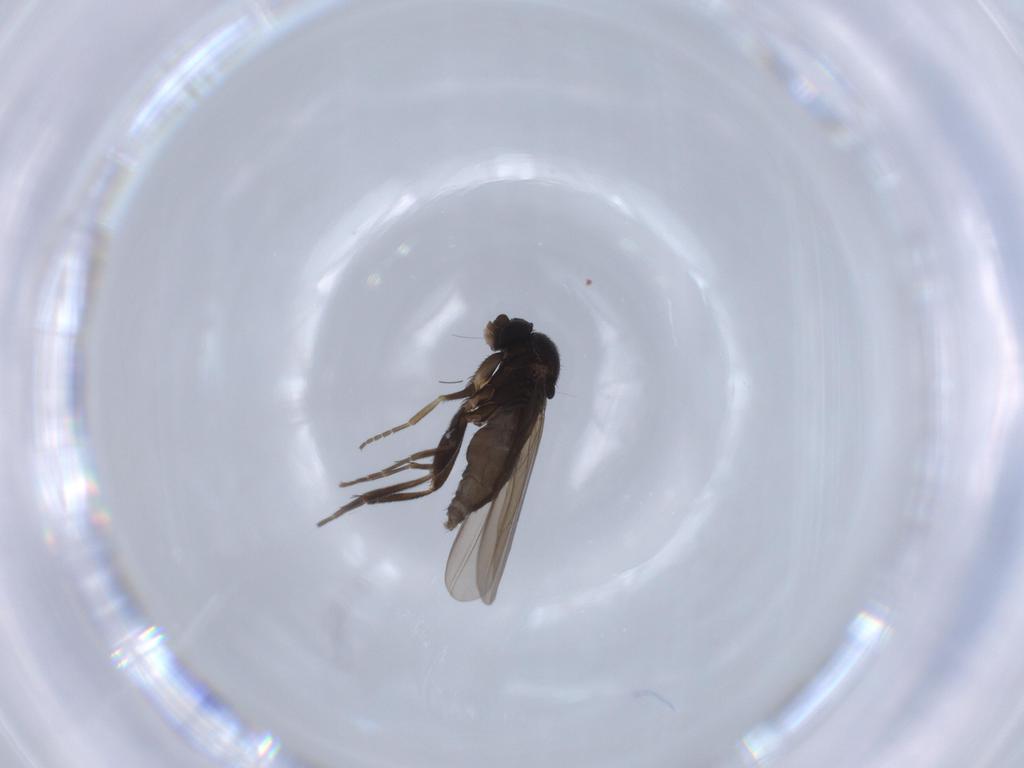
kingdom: Animalia
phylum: Arthropoda
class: Insecta
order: Diptera
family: Phoridae
